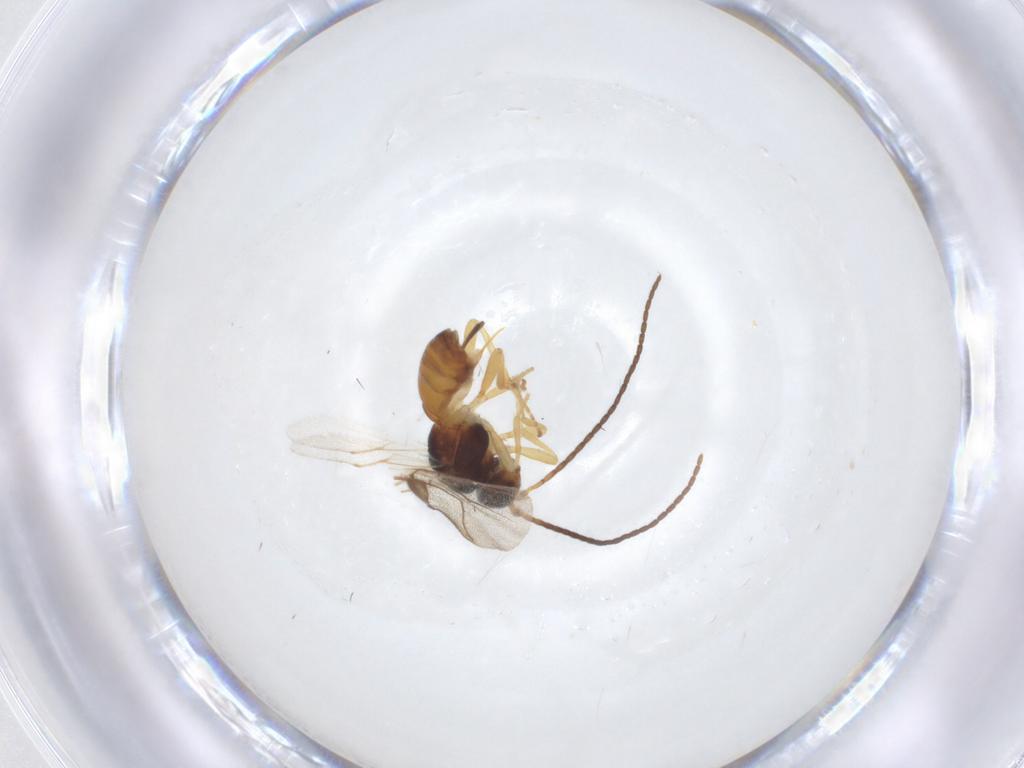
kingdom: Animalia
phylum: Arthropoda
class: Insecta
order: Hymenoptera
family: Braconidae
